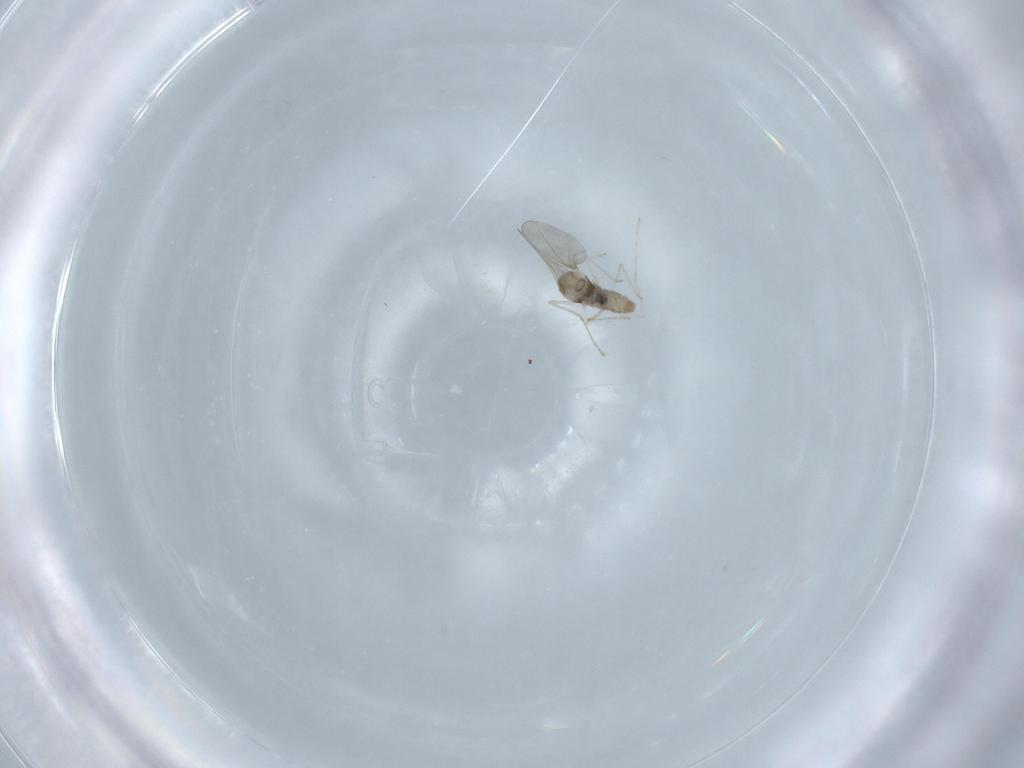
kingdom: Animalia
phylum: Arthropoda
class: Insecta
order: Diptera
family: Cecidomyiidae
